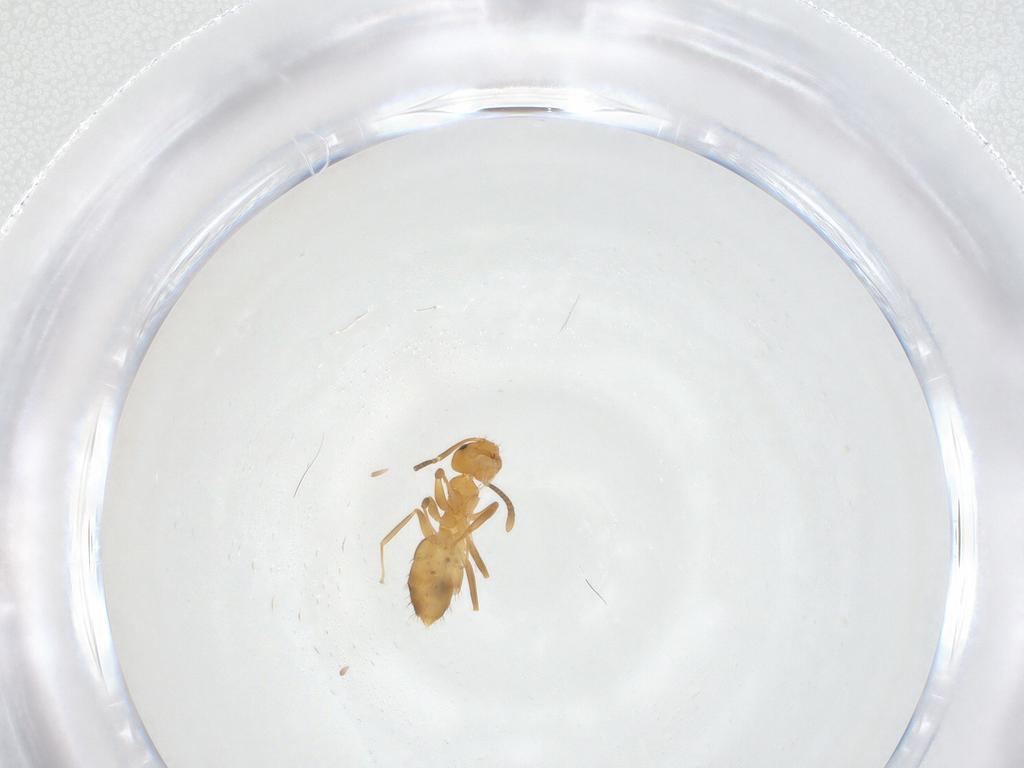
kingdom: Animalia
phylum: Arthropoda
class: Insecta
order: Hymenoptera
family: Formicidae
